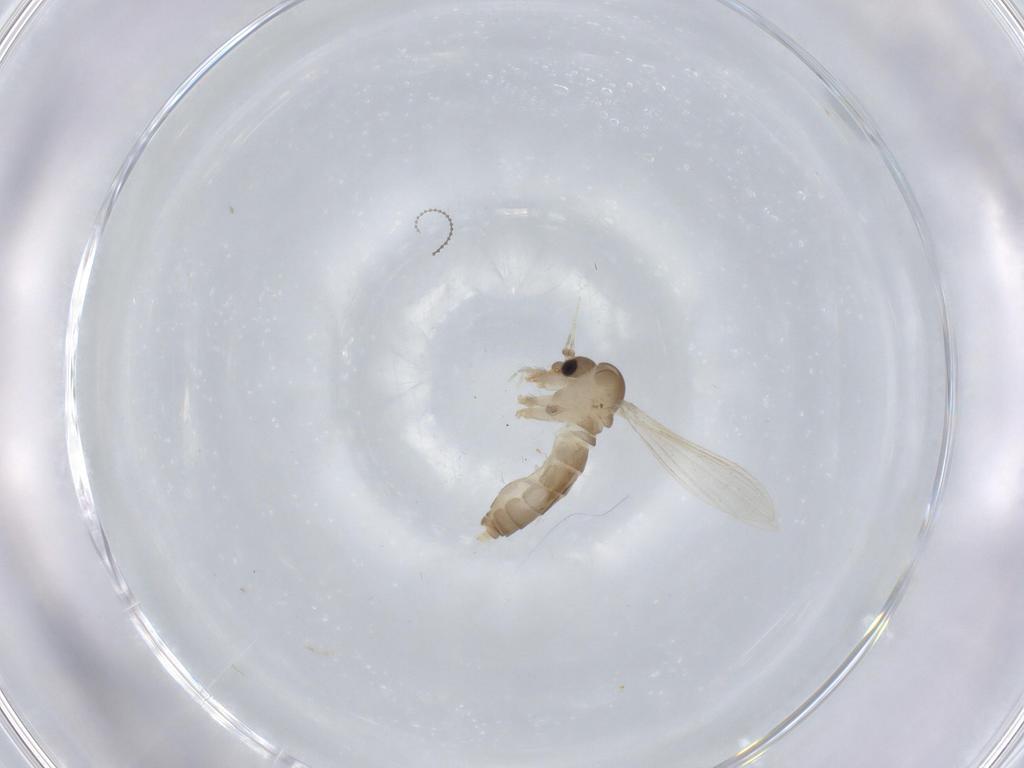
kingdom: Animalia
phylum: Arthropoda
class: Insecta
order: Diptera
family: Psychodidae
